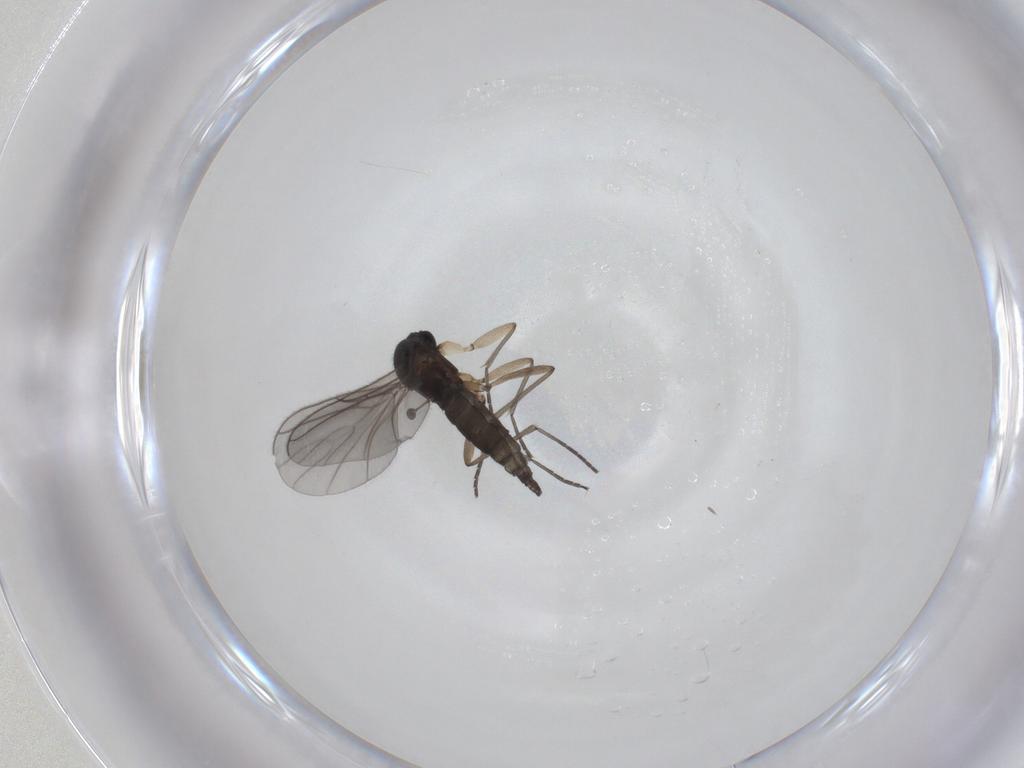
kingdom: Animalia
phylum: Arthropoda
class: Insecta
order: Diptera
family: Sciaridae
